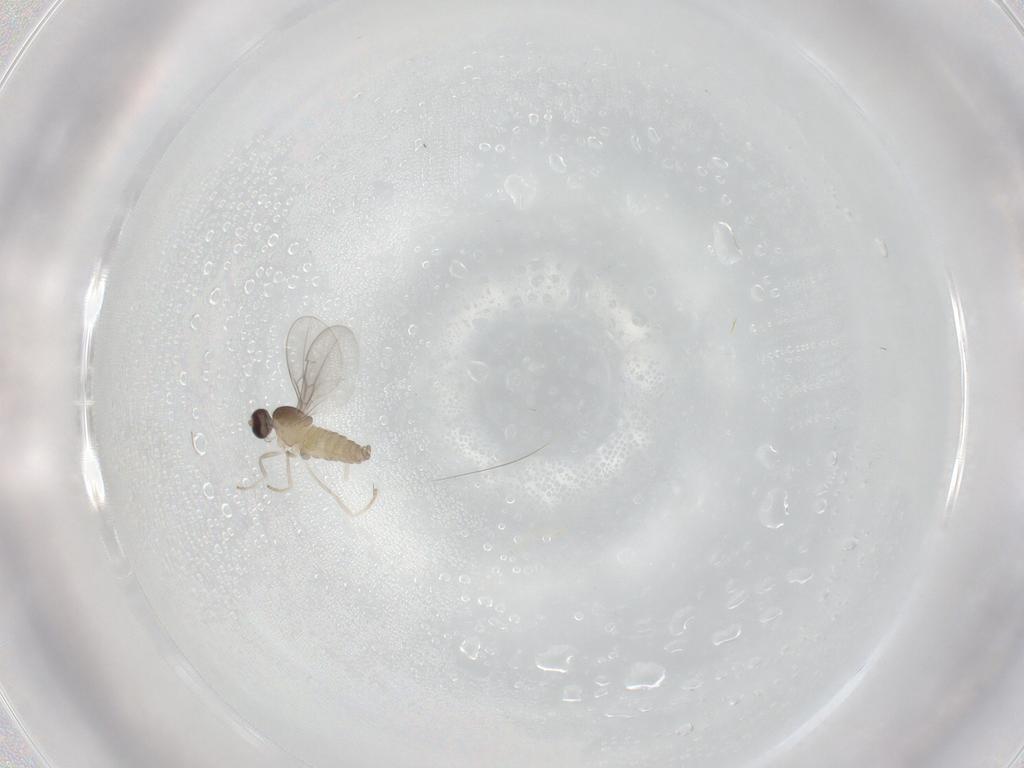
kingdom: Animalia
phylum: Arthropoda
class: Insecta
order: Diptera
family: Cecidomyiidae
